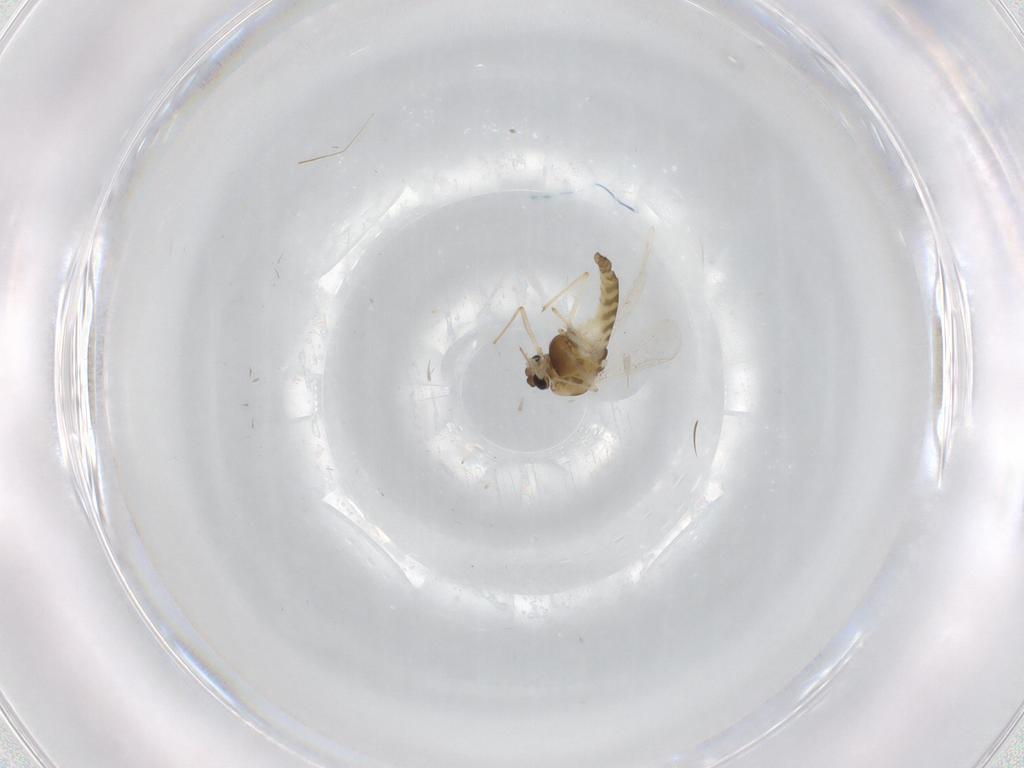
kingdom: Animalia
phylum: Arthropoda
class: Insecta
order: Diptera
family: Chironomidae
